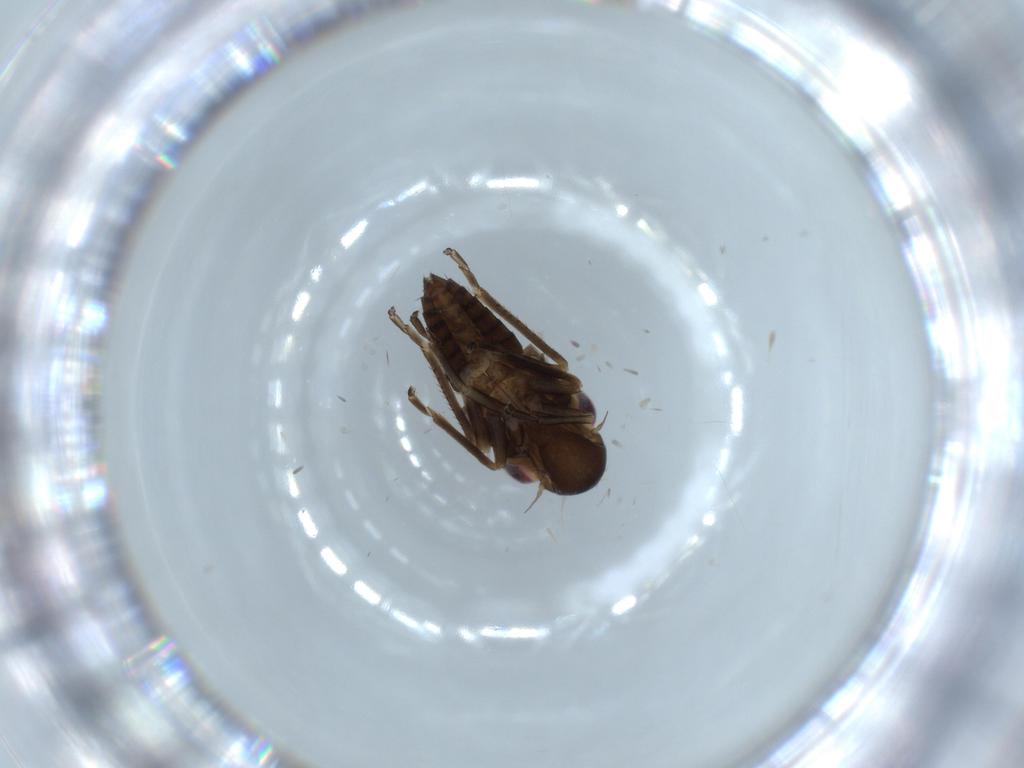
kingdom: Animalia
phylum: Arthropoda
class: Insecta
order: Hemiptera
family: Cicadellidae
